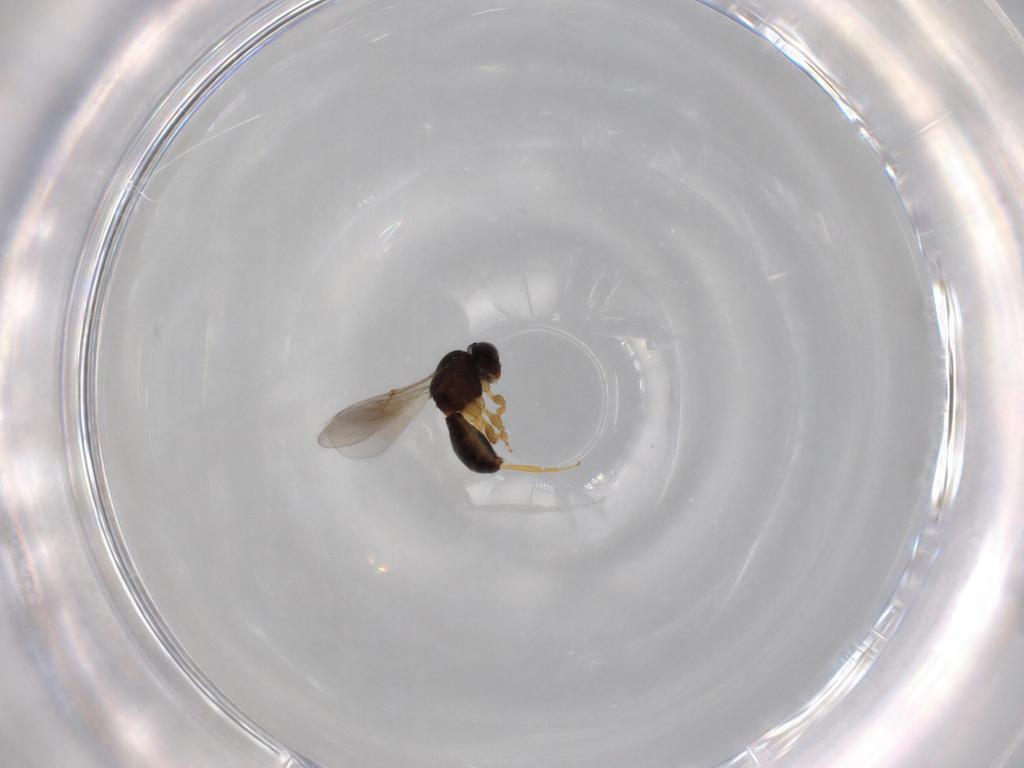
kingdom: Animalia
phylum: Arthropoda
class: Insecta
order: Hymenoptera
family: Scelionidae
